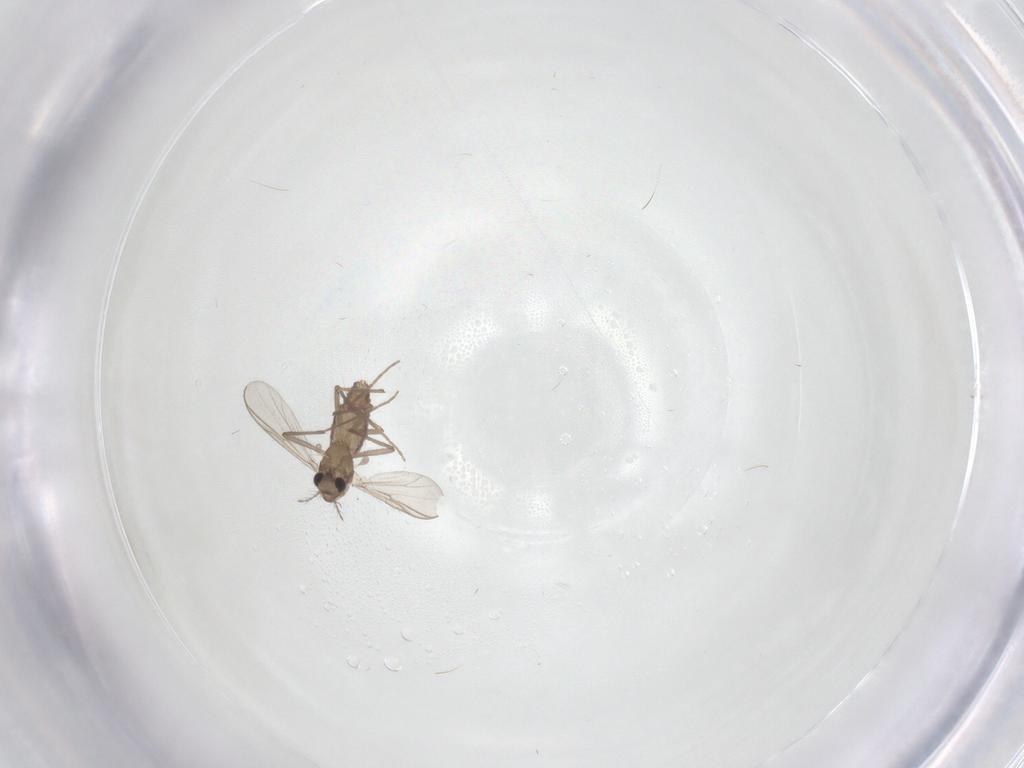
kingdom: Animalia
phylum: Arthropoda
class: Insecta
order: Diptera
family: Chironomidae
